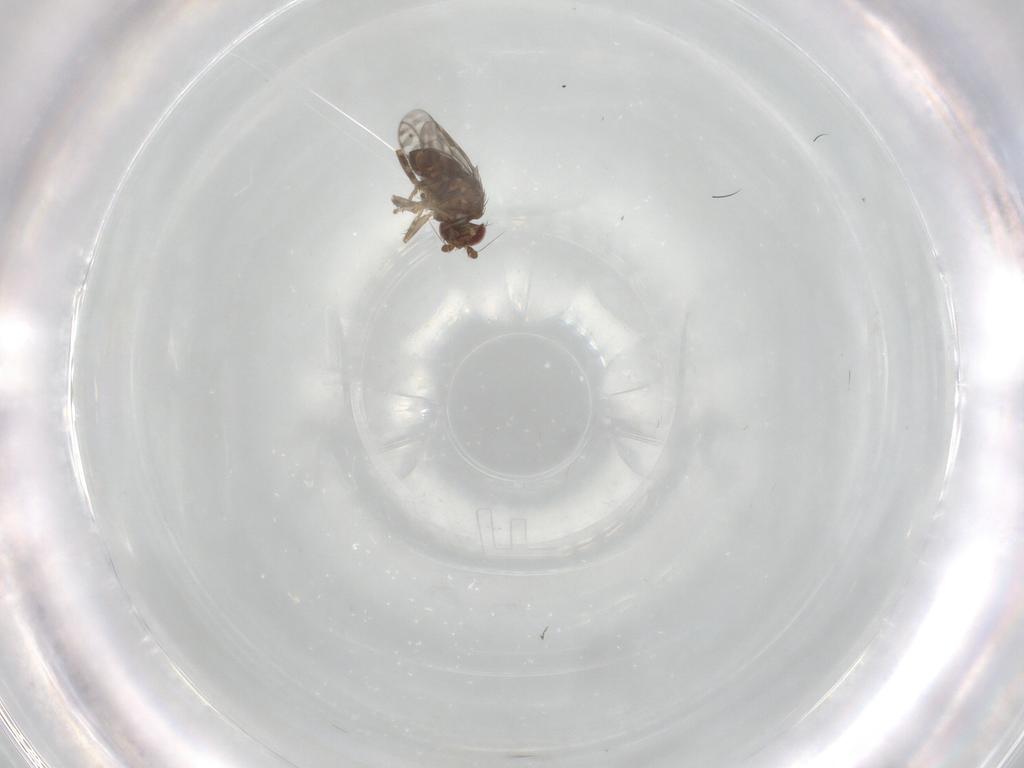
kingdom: Animalia
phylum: Arthropoda
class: Insecta
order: Diptera
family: Sphaeroceridae
